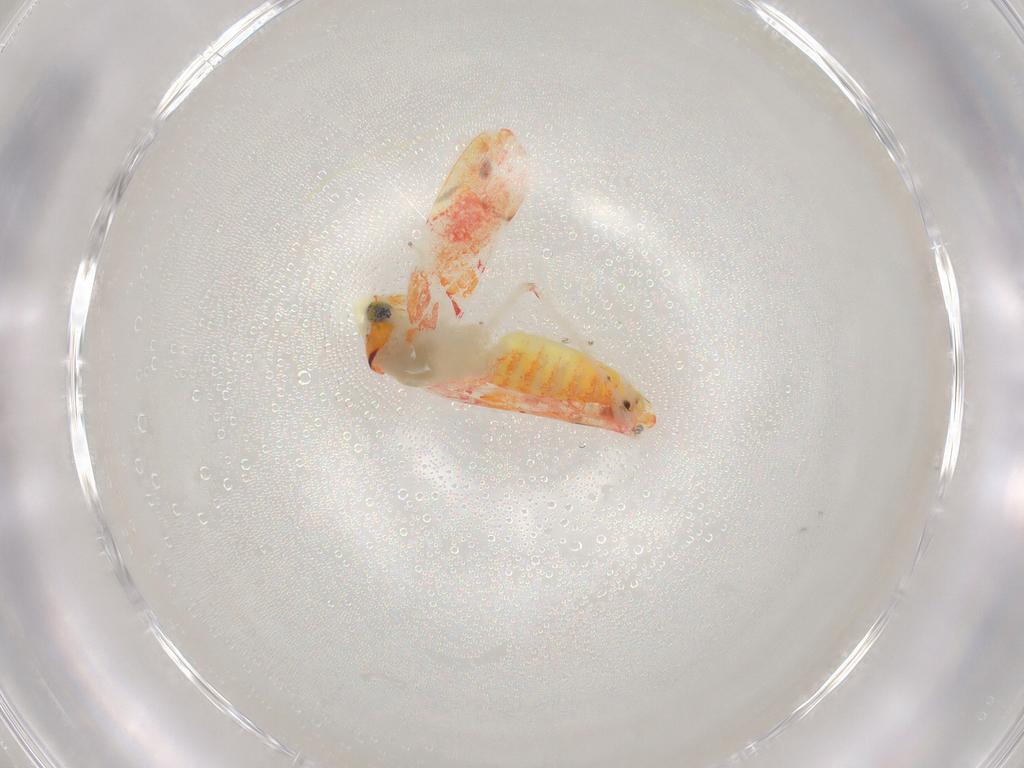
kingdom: Animalia
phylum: Arthropoda
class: Insecta
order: Hemiptera
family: Cicadellidae
